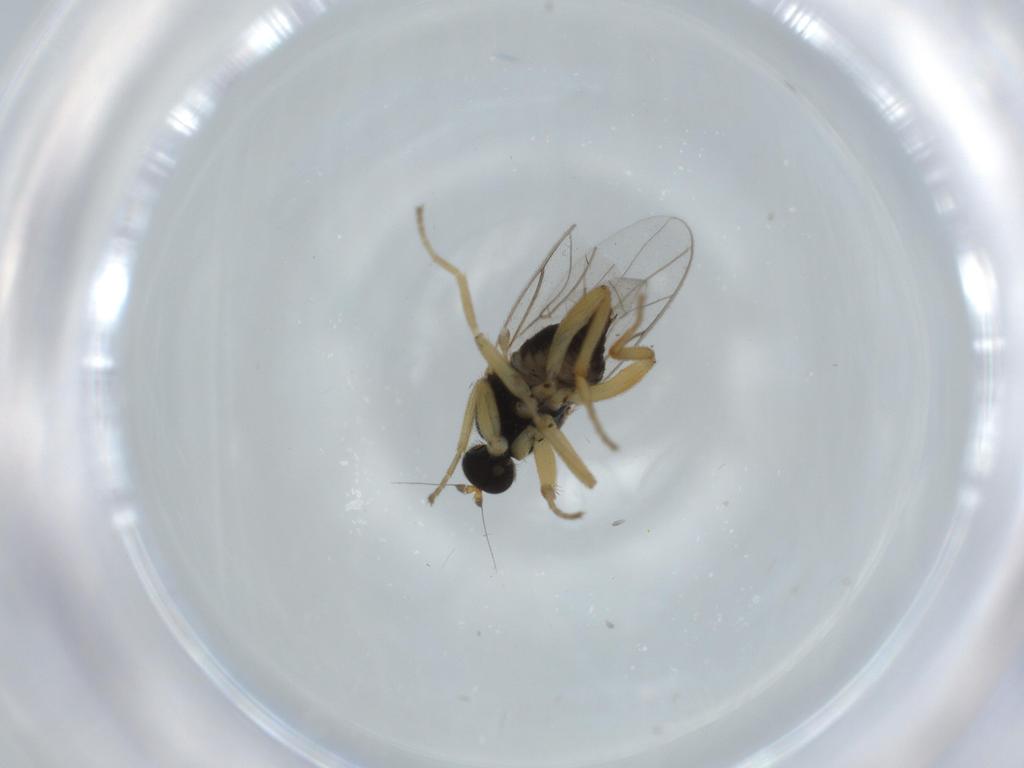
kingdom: Animalia
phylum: Arthropoda
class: Insecta
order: Diptera
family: Hybotidae
